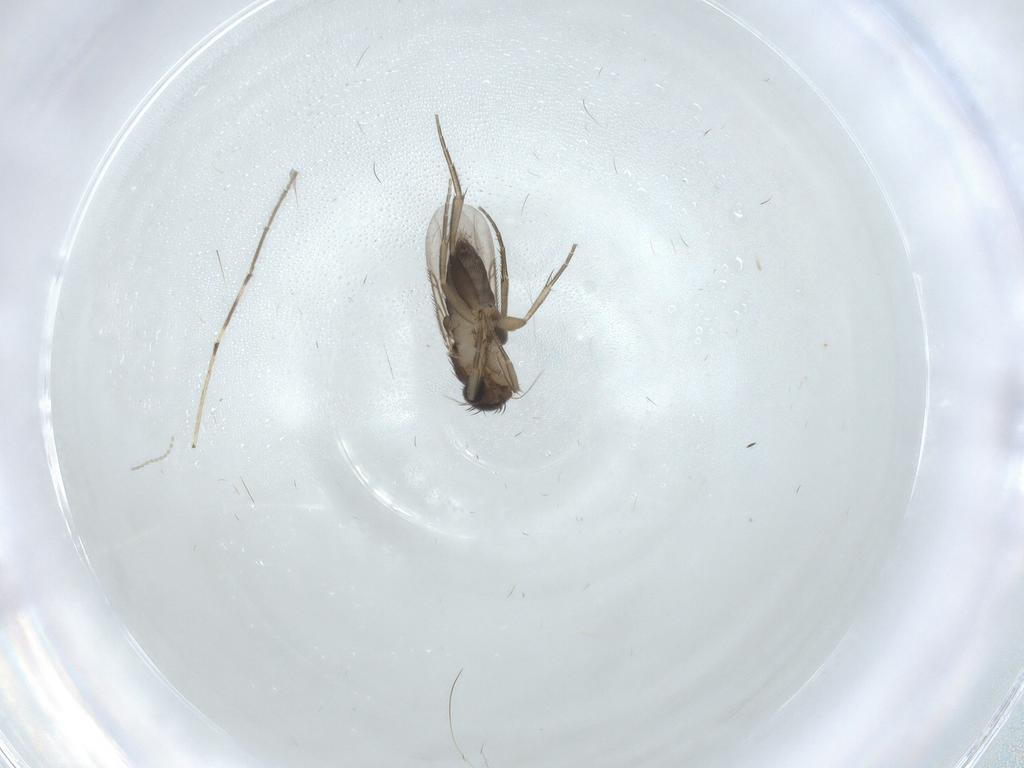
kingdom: Animalia
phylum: Arthropoda
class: Insecta
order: Diptera
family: Phoridae
